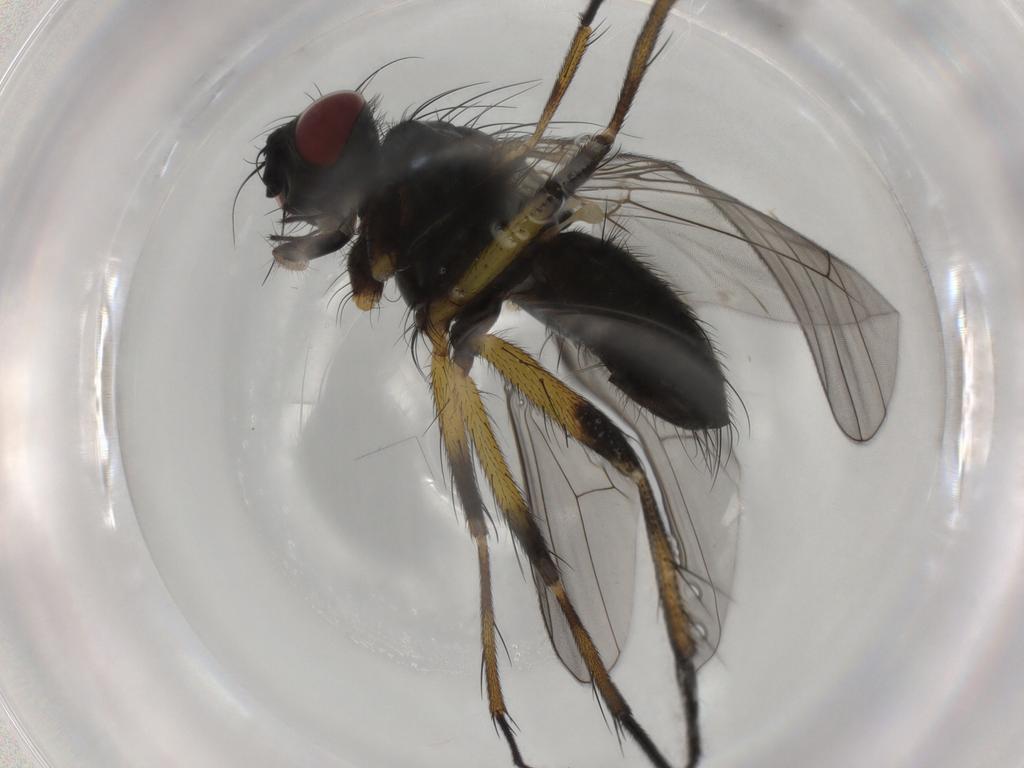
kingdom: Animalia
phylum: Arthropoda
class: Insecta
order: Diptera
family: Muscidae
